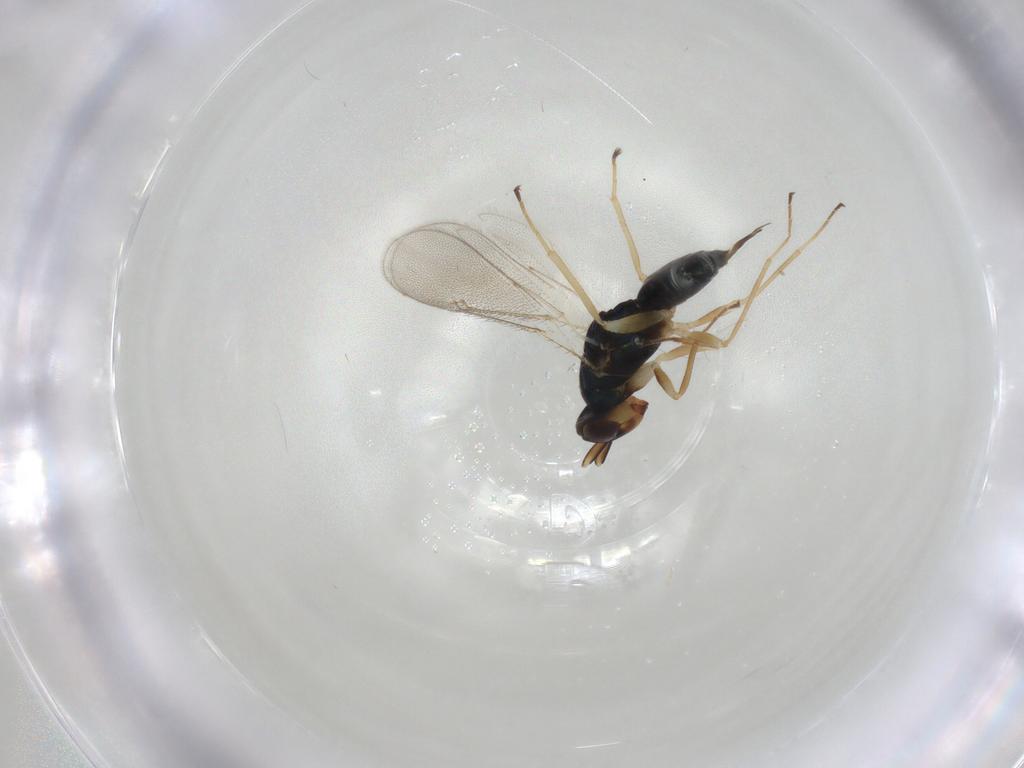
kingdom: Animalia
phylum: Arthropoda
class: Insecta
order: Hymenoptera
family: Eulophidae
